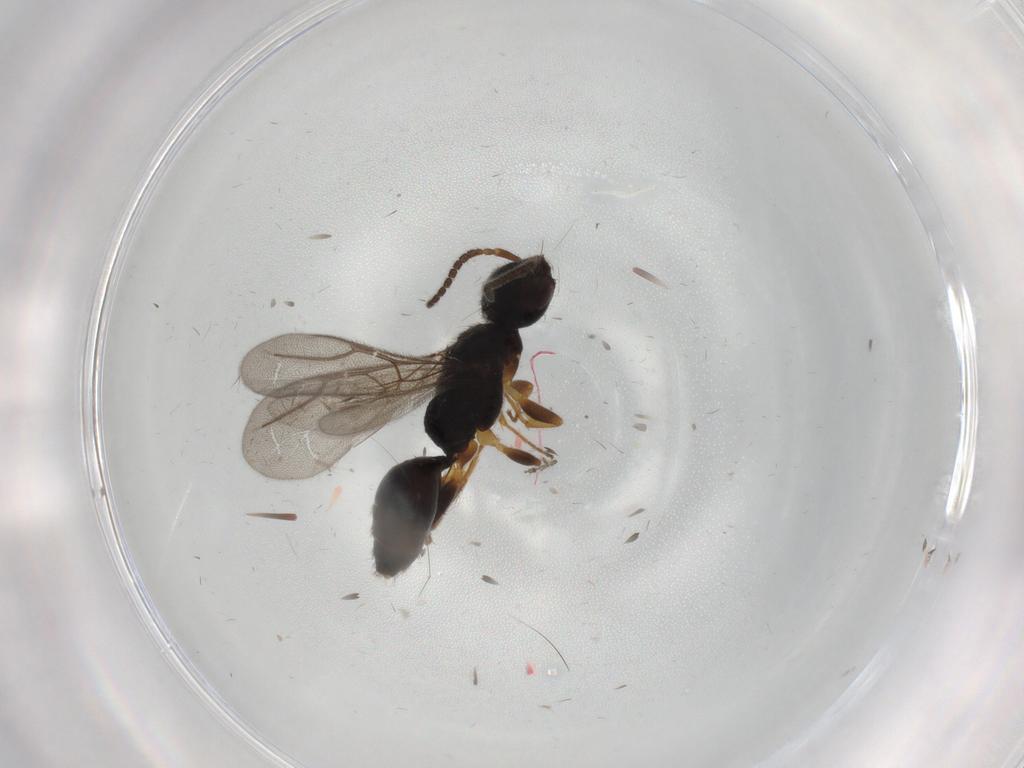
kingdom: Animalia
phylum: Arthropoda
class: Insecta
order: Hymenoptera
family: Bethylidae
